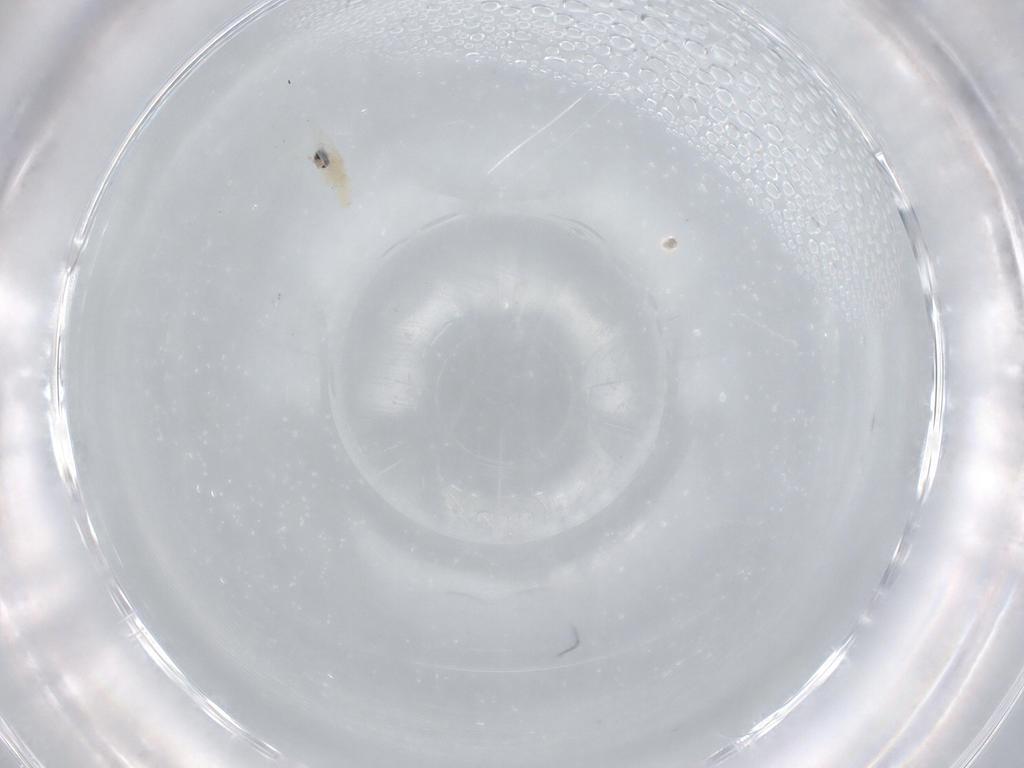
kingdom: Animalia
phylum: Arthropoda
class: Insecta
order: Diptera
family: Cecidomyiidae
